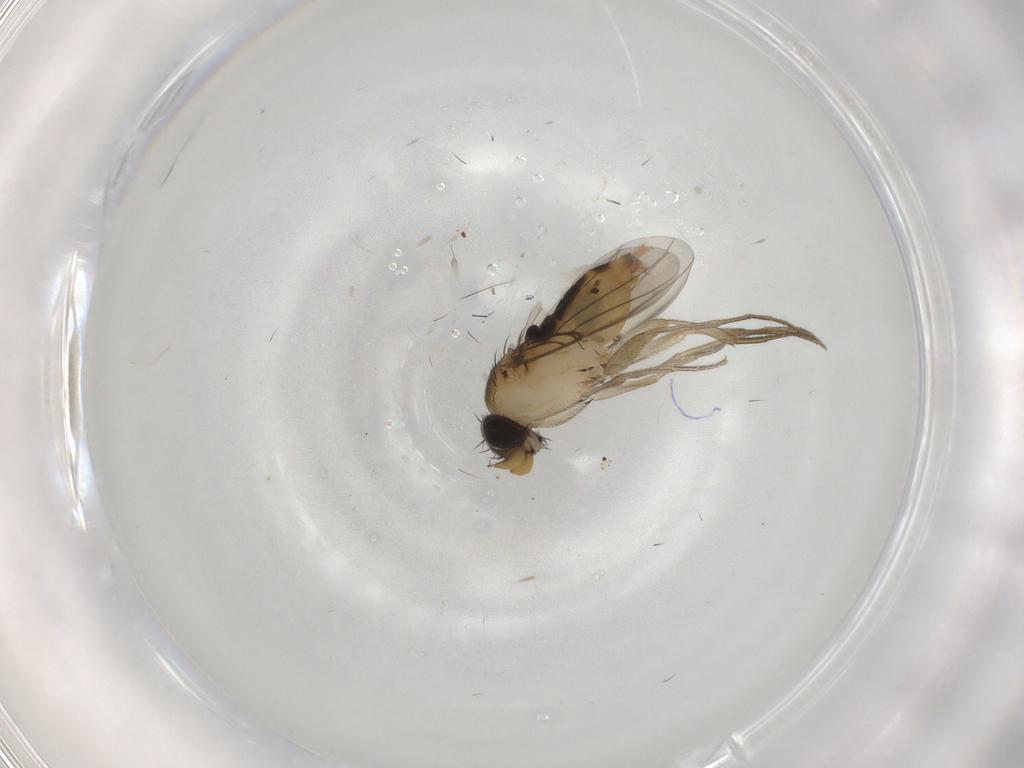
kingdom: Animalia
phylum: Arthropoda
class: Insecta
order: Diptera
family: Phoridae
